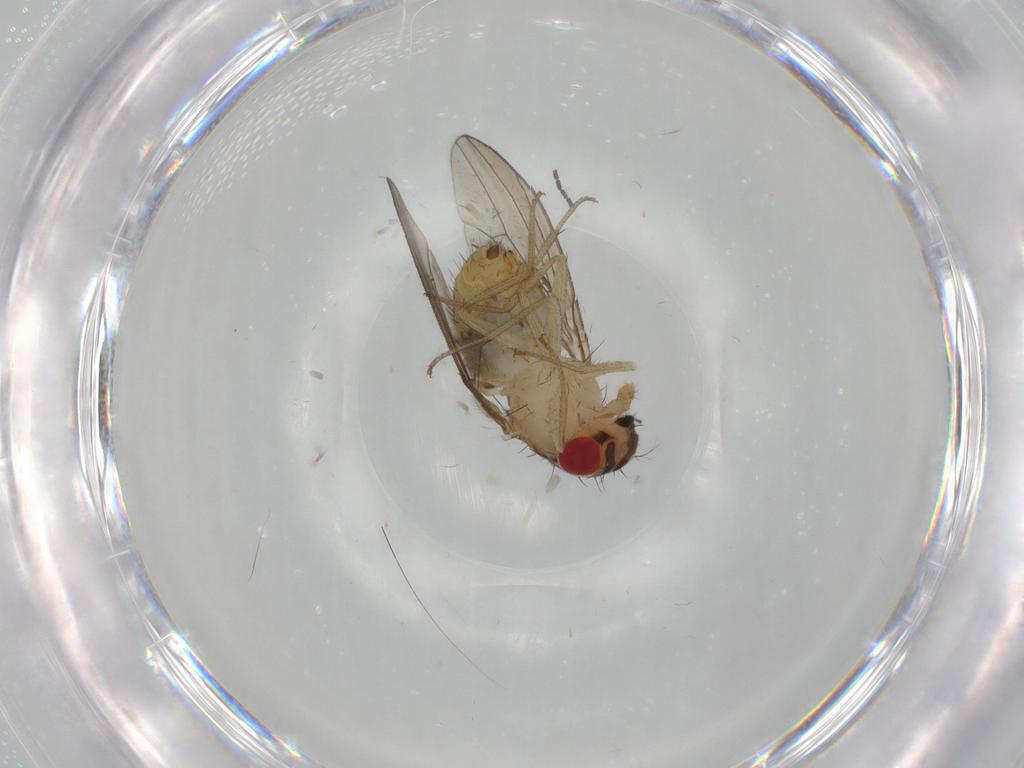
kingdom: Animalia
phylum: Arthropoda
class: Insecta
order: Diptera
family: Drosophilidae
